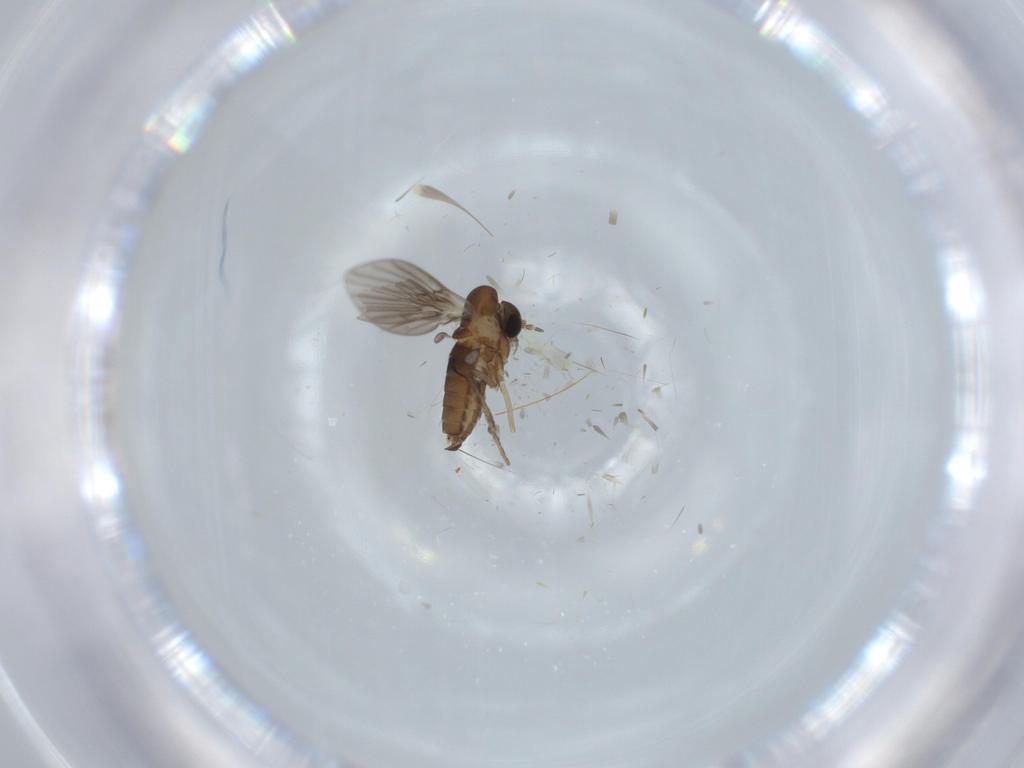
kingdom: Animalia
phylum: Arthropoda
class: Insecta
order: Diptera
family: Psychodidae
